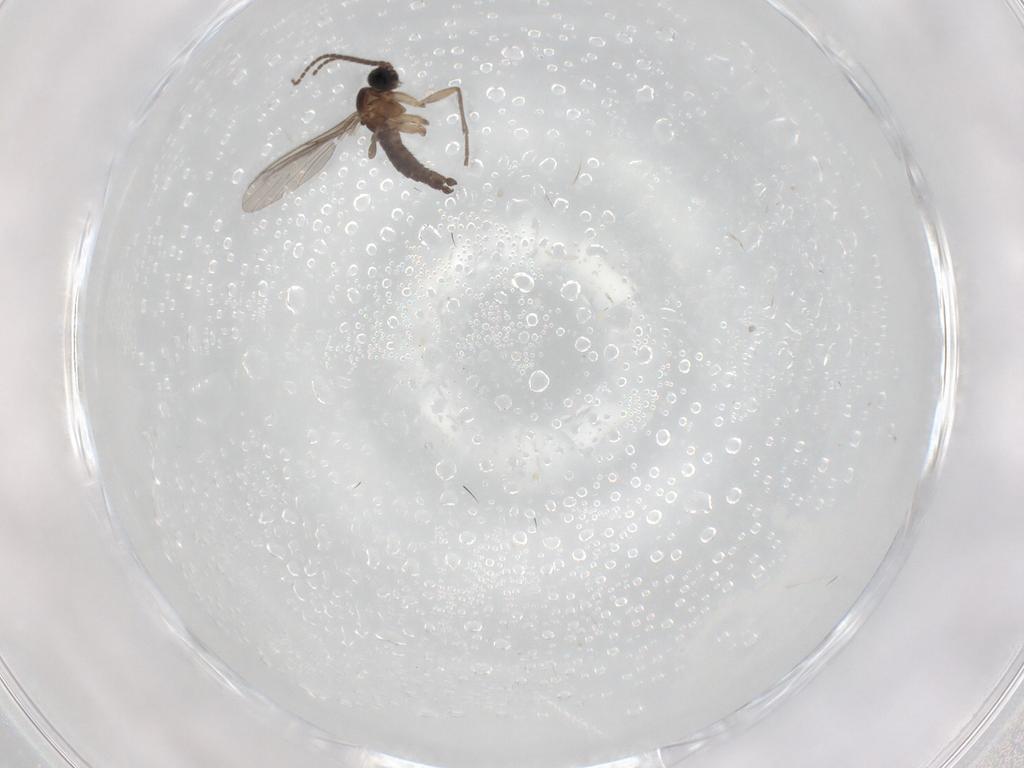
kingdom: Animalia
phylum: Arthropoda
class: Insecta
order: Diptera
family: Sciaridae
